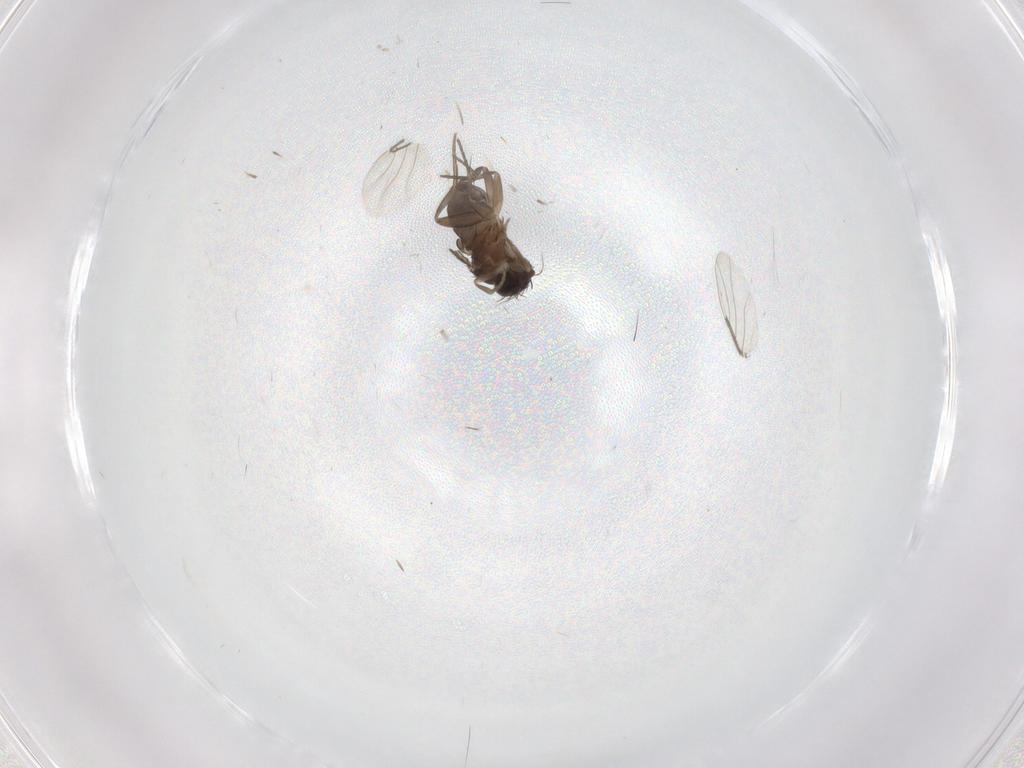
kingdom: Animalia
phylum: Arthropoda
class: Insecta
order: Diptera
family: Phoridae
